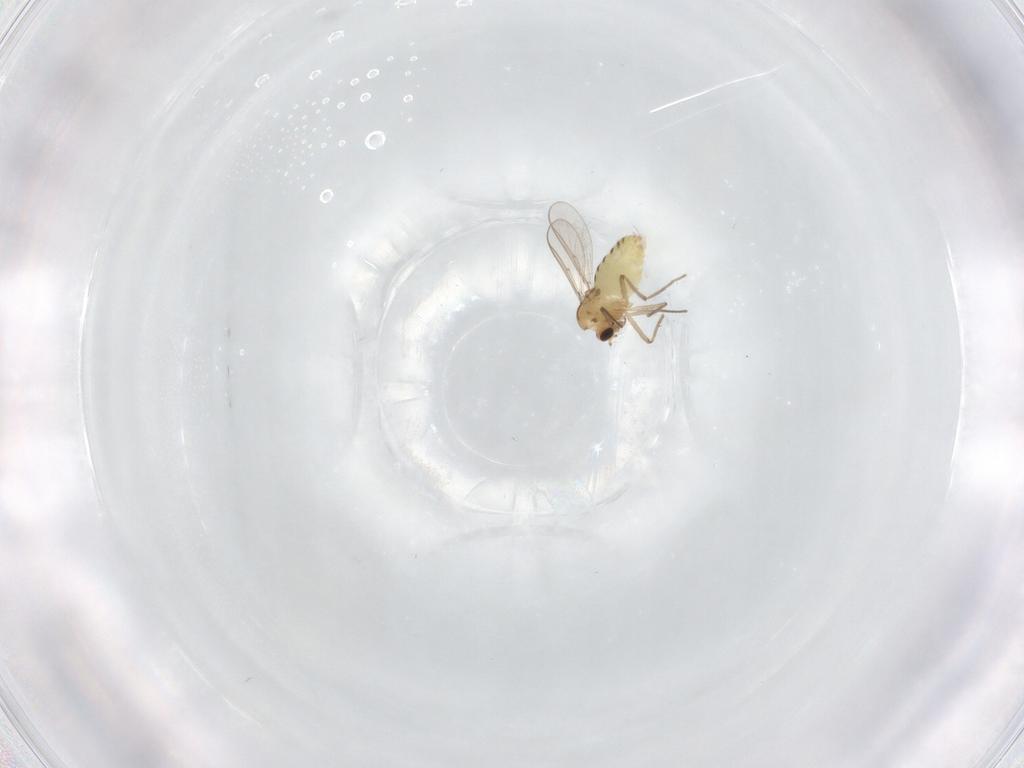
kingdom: Animalia
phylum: Arthropoda
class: Insecta
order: Diptera
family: Chironomidae
